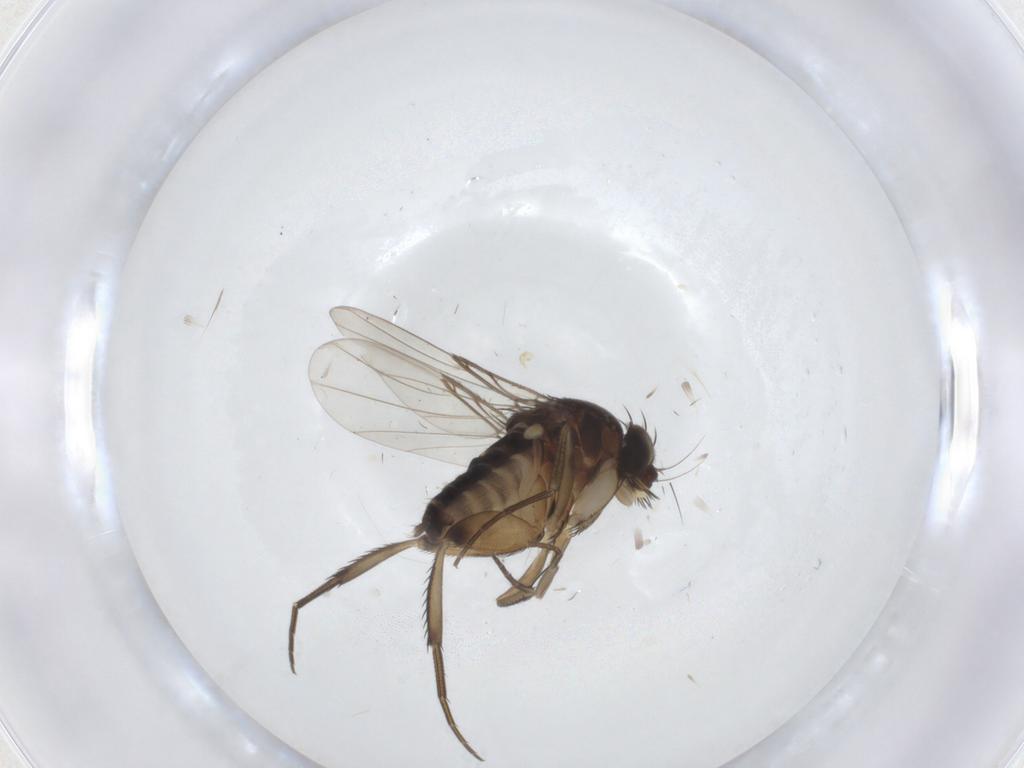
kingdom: Animalia
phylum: Arthropoda
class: Insecta
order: Diptera
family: Phoridae
